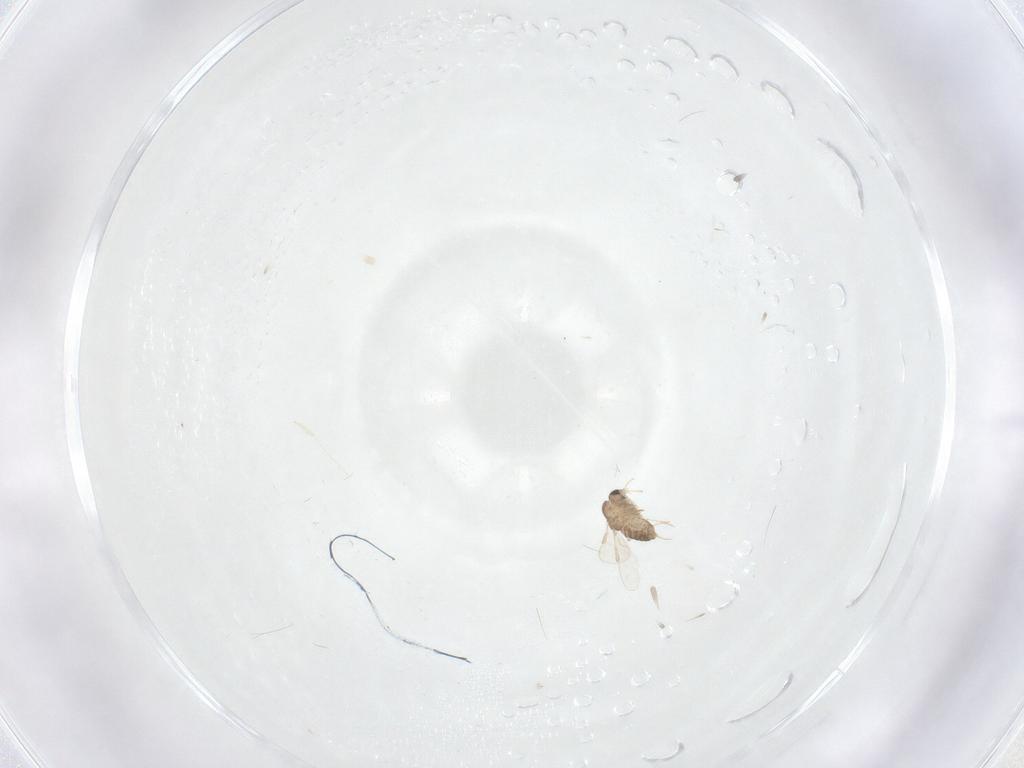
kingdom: Animalia
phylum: Arthropoda
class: Insecta
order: Diptera
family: Chironomidae
